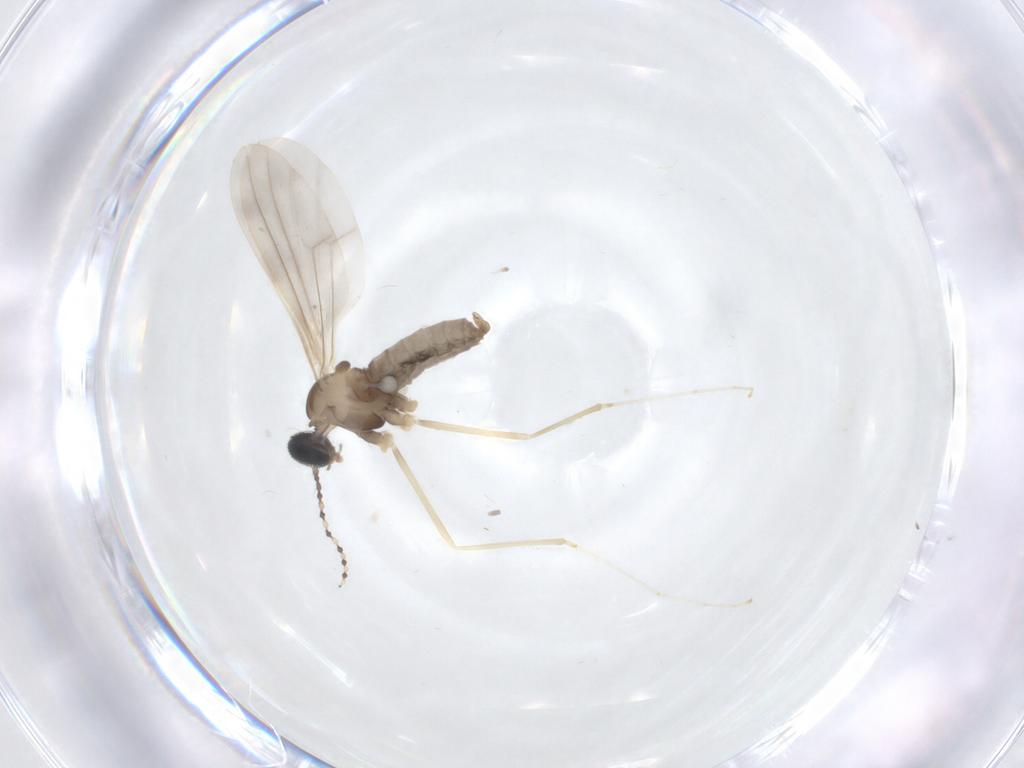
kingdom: Animalia
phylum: Arthropoda
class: Insecta
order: Diptera
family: Cecidomyiidae
